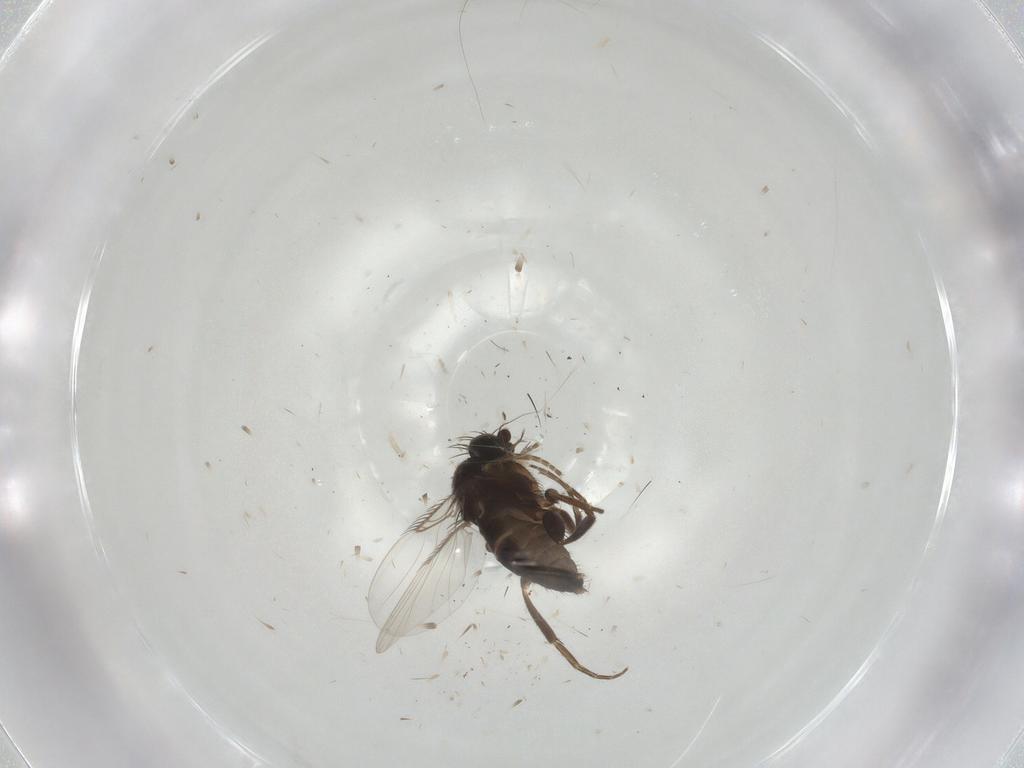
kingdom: Animalia
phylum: Arthropoda
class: Insecta
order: Diptera
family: Phoridae
